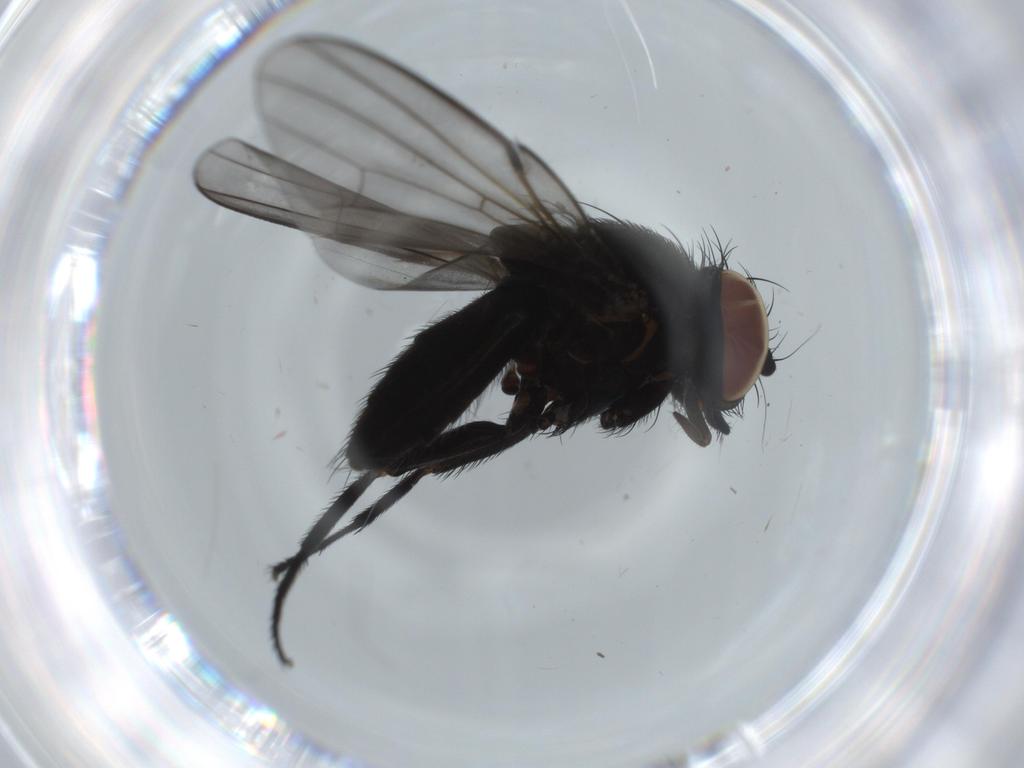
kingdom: Animalia
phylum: Arthropoda
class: Insecta
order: Diptera
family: Milichiidae
